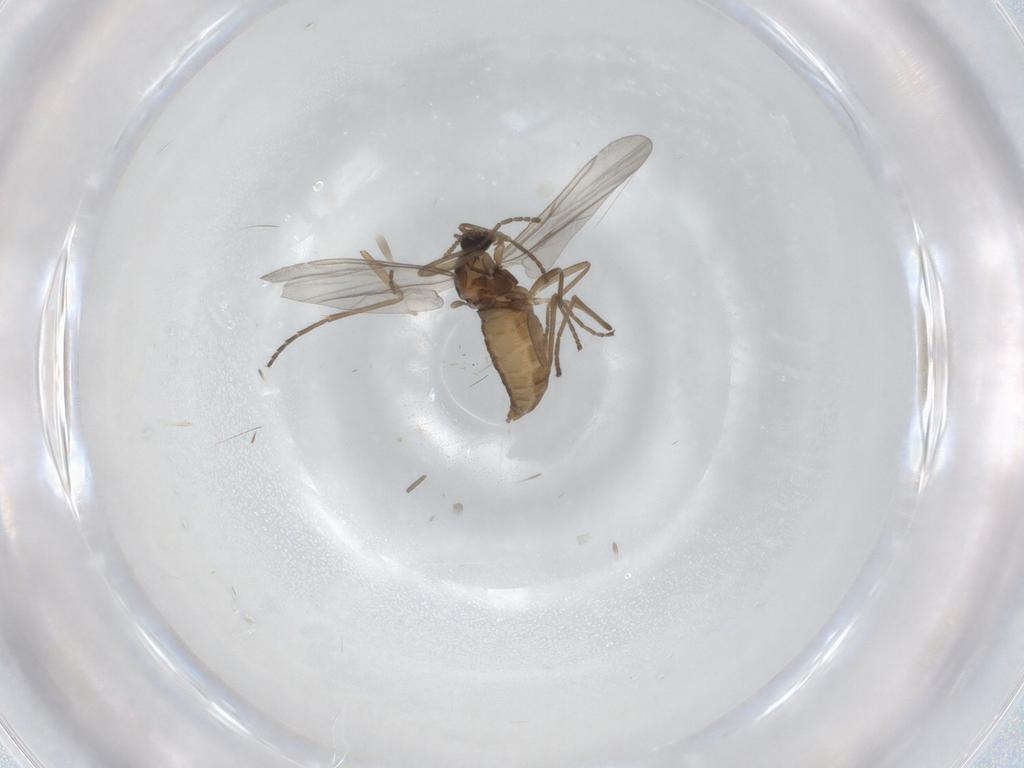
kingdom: Animalia
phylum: Arthropoda
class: Insecta
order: Diptera
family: Sciaridae
